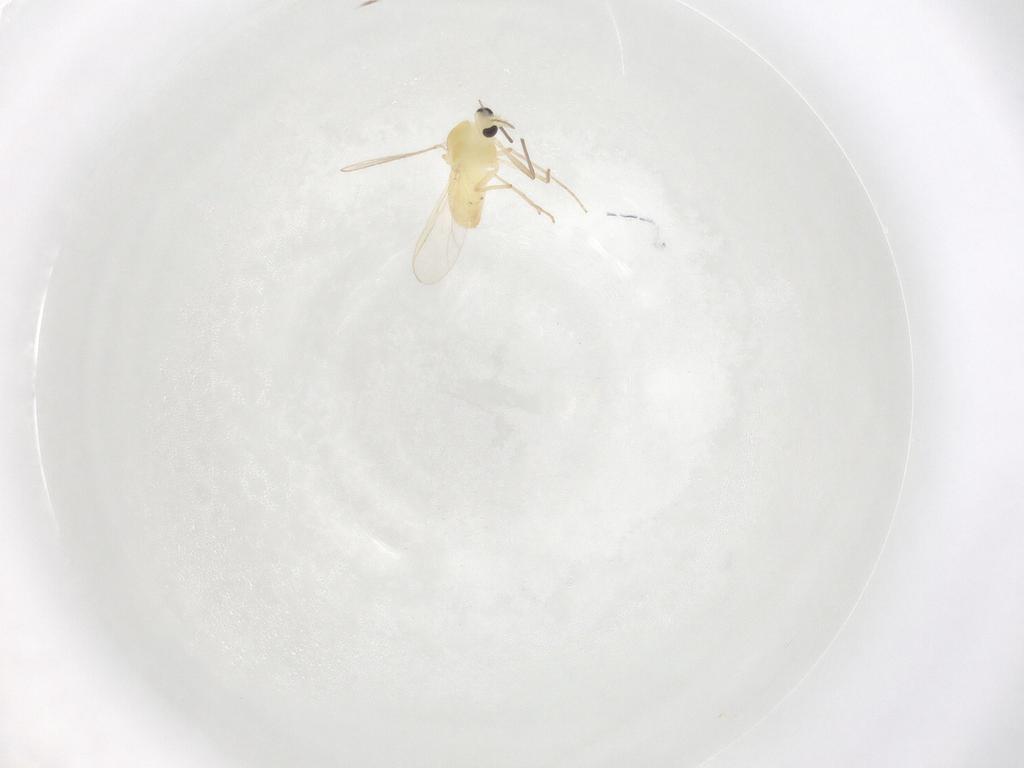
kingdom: Animalia
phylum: Arthropoda
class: Insecta
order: Diptera
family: Chironomidae
